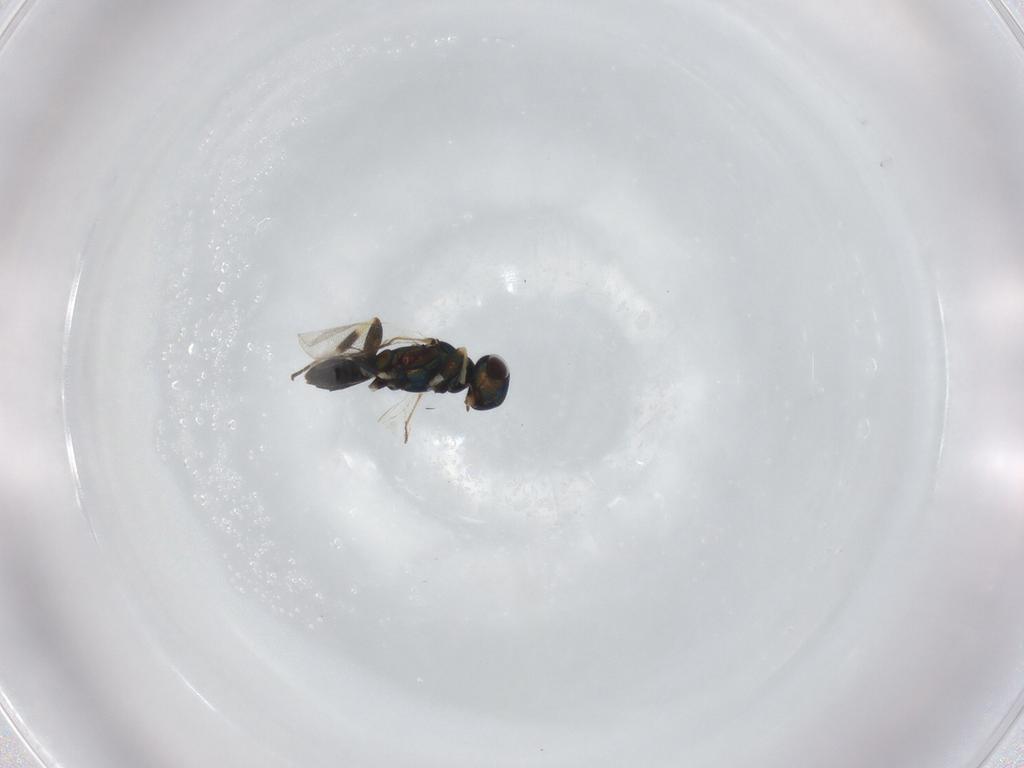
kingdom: Animalia
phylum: Arthropoda
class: Insecta
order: Hymenoptera
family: Eupelmidae
